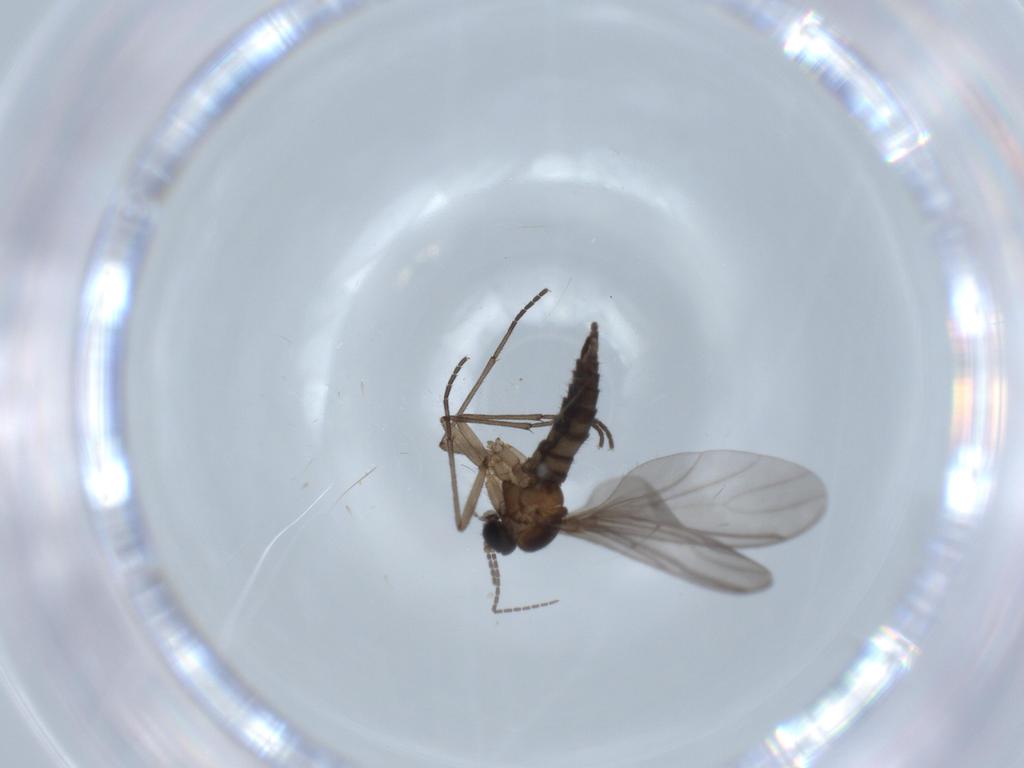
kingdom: Animalia
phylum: Arthropoda
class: Insecta
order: Diptera
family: Sciaridae
